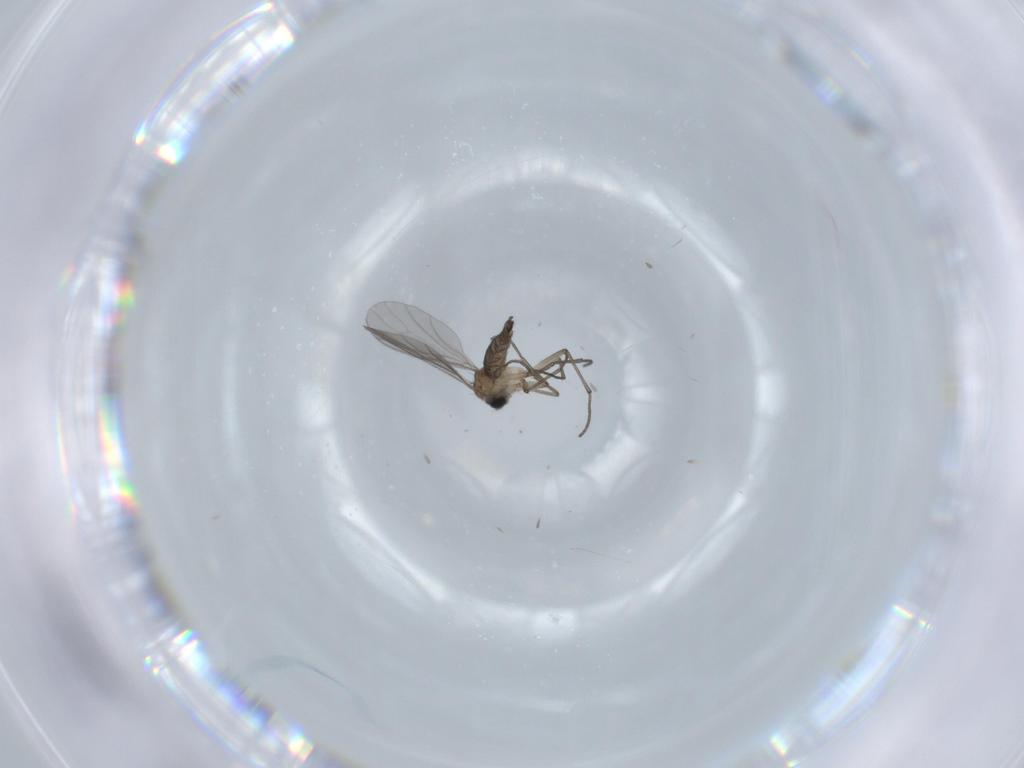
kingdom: Animalia
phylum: Arthropoda
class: Insecta
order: Diptera
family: Sciaridae
